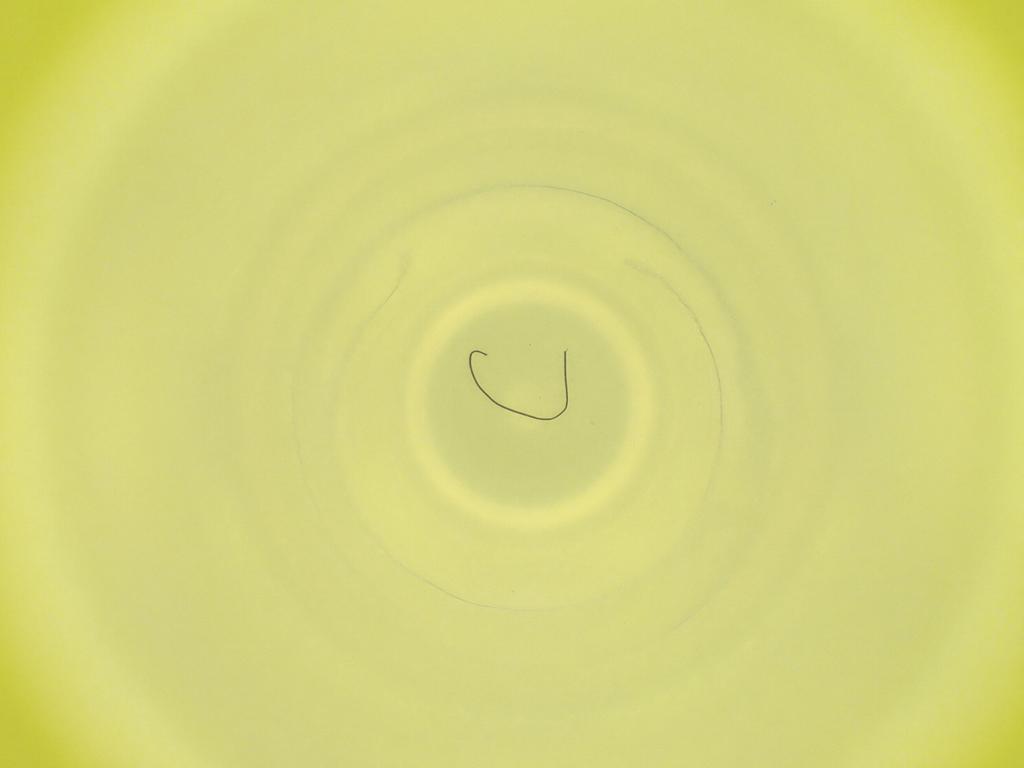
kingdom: Animalia
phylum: Arthropoda
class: Insecta
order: Diptera
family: Cecidomyiidae
